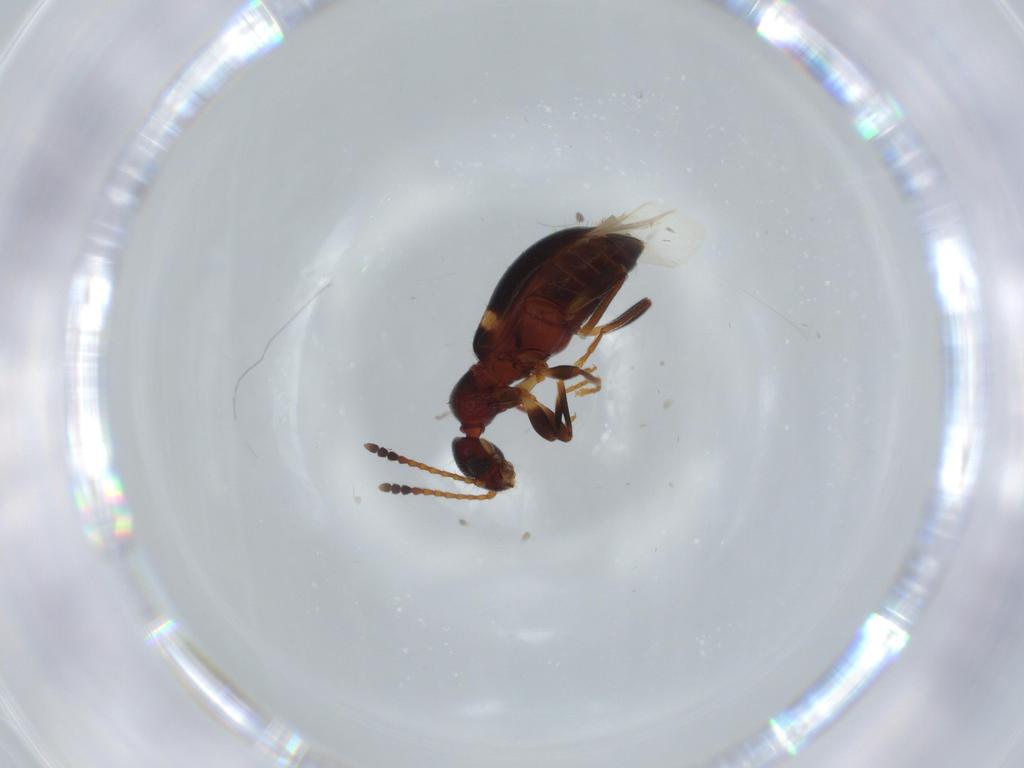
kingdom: Animalia
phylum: Arthropoda
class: Insecta
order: Coleoptera
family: Anthicidae
